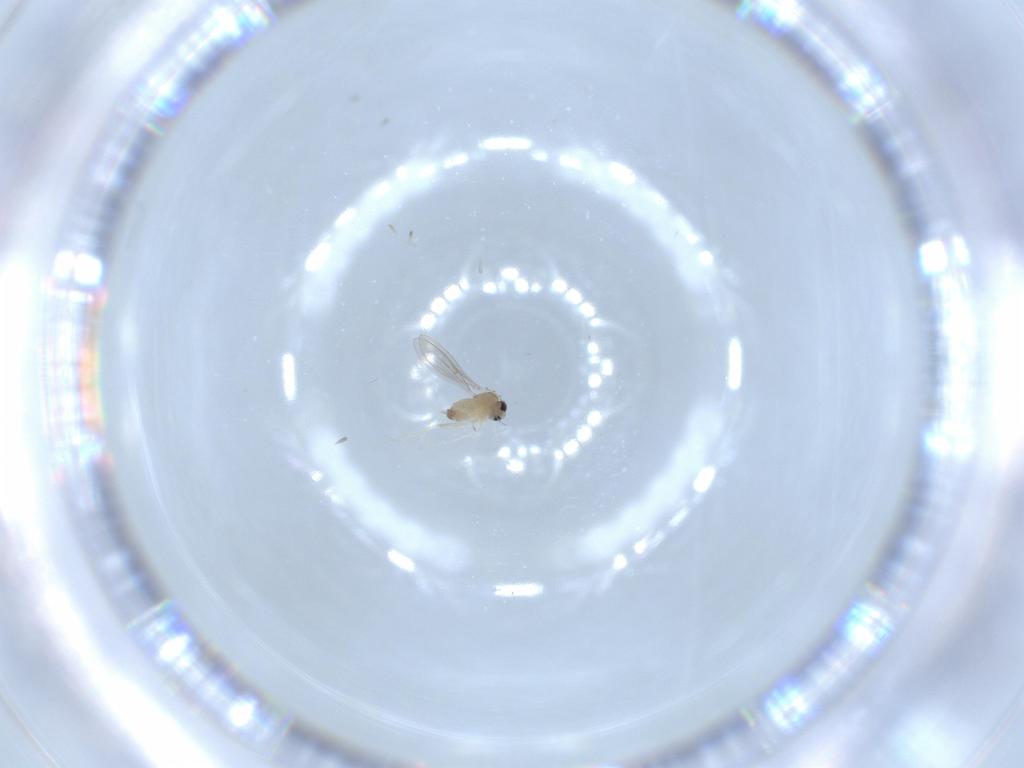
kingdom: Animalia
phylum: Arthropoda
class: Insecta
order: Diptera
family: Cecidomyiidae
